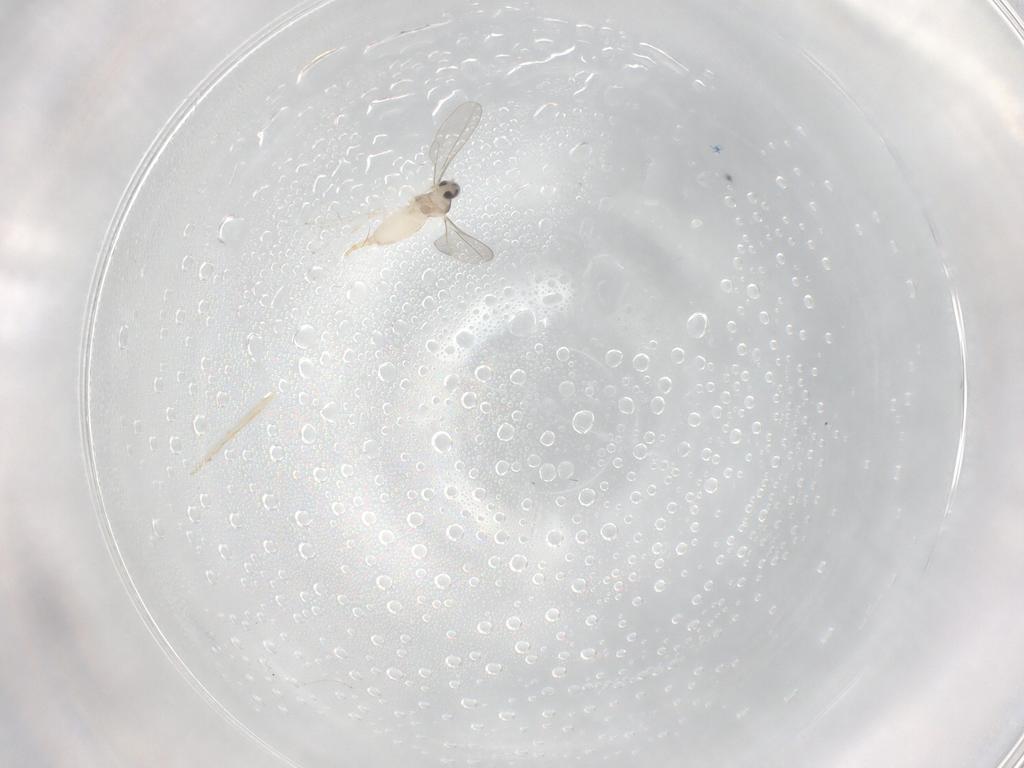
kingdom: Animalia
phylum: Arthropoda
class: Insecta
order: Diptera
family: Cecidomyiidae
